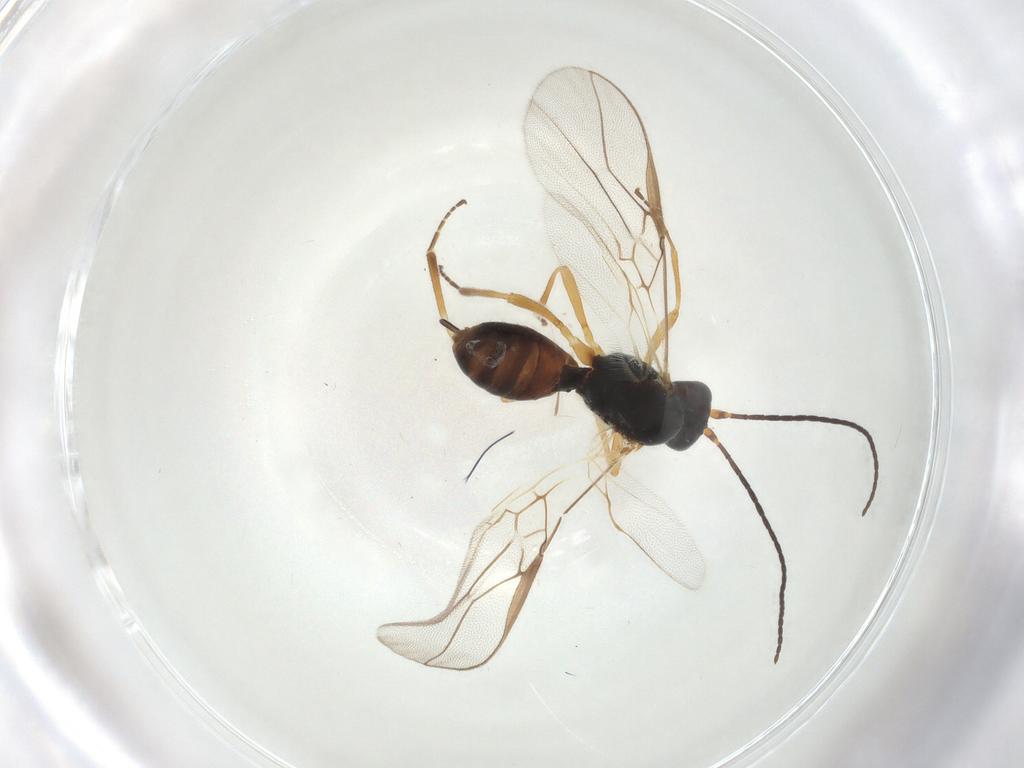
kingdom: Animalia
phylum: Arthropoda
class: Insecta
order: Hymenoptera
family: Braconidae
